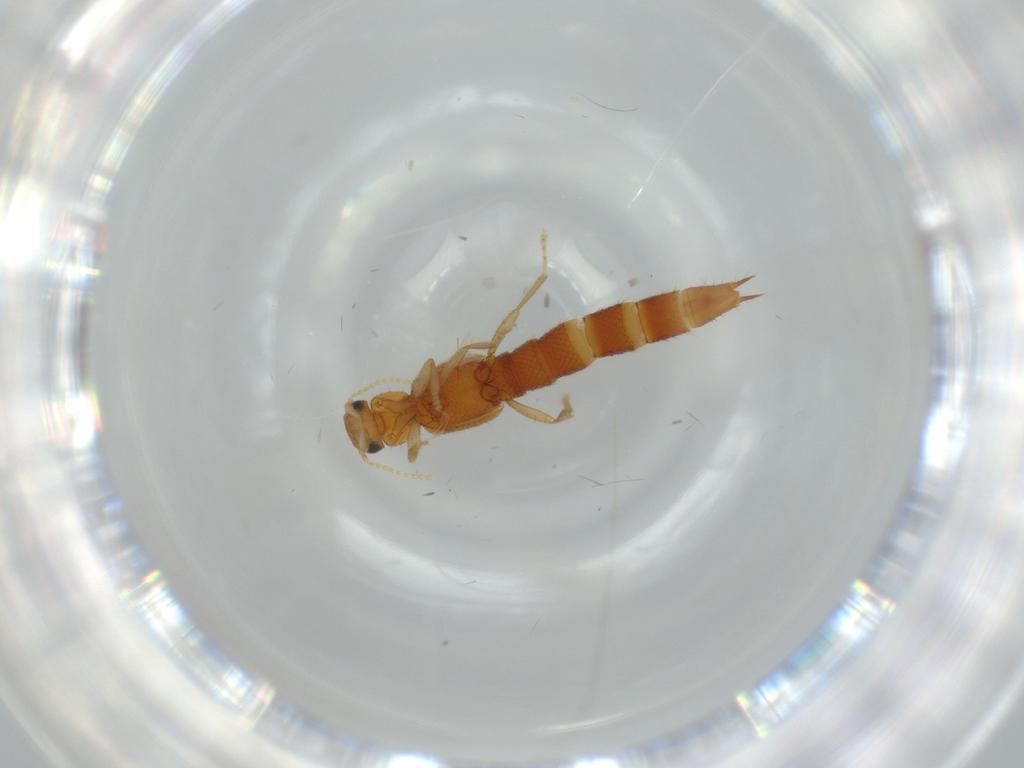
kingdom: Animalia
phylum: Arthropoda
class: Insecta
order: Coleoptera
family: Staphylinidae
